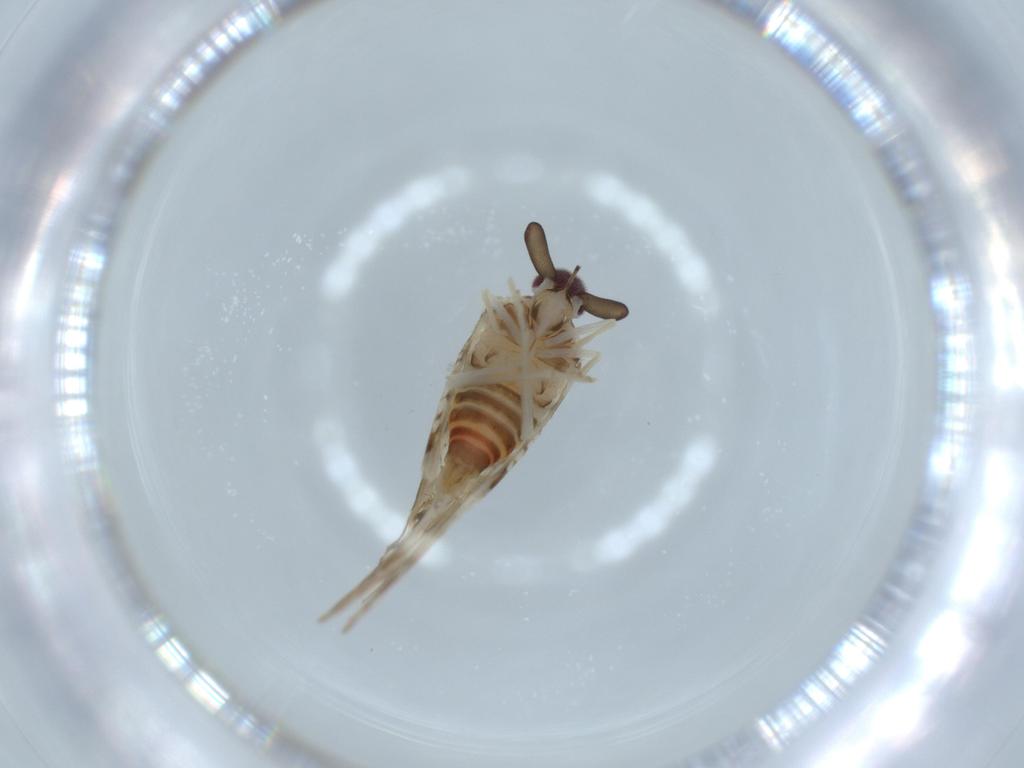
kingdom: Animalia
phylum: Arthropoda
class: Insecta
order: Hemiptera
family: Derbidae
